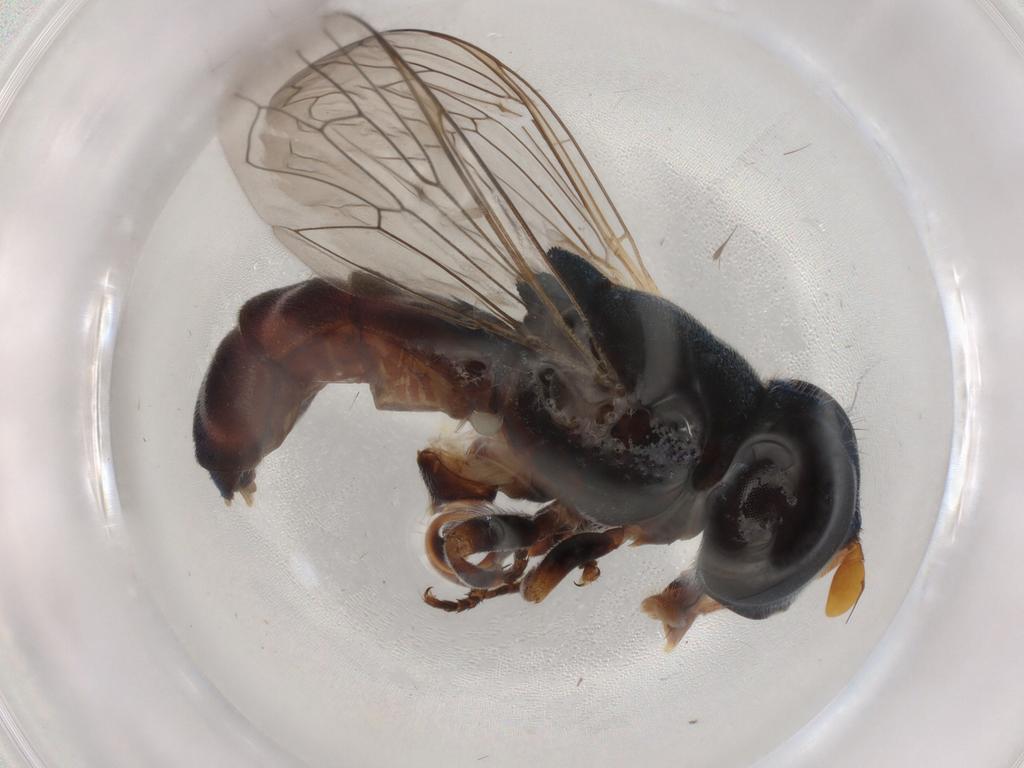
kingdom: Animalia
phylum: Arthropoda
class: Insecta
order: Diptera
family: Syrphidae
